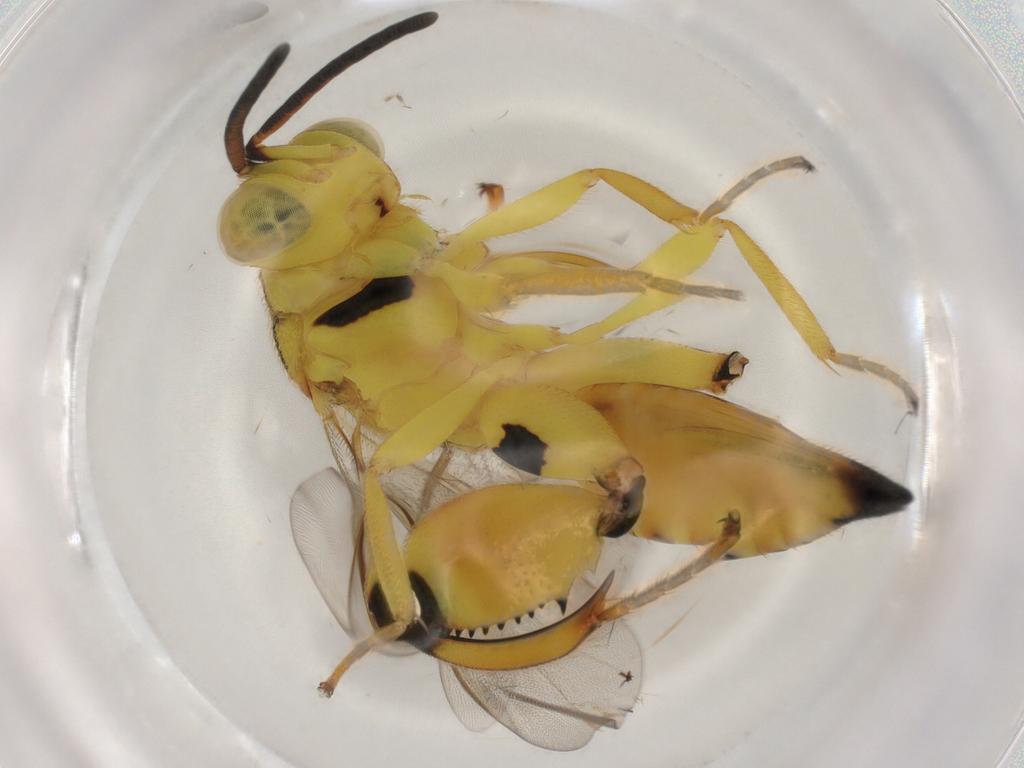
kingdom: Animalia
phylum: Arthropoda
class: Insecta
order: Hymenoptera
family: Chalcididae
